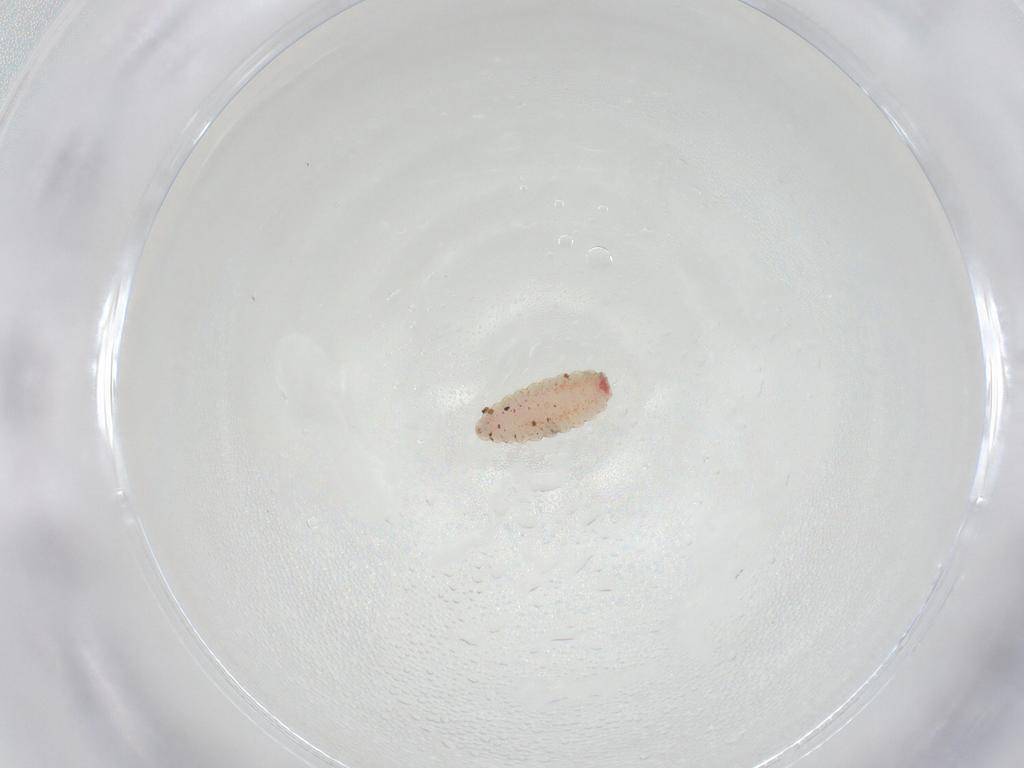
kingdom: Animalia
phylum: Arthropoda
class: Insecta
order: Diptera
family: Cecidomyiidae
